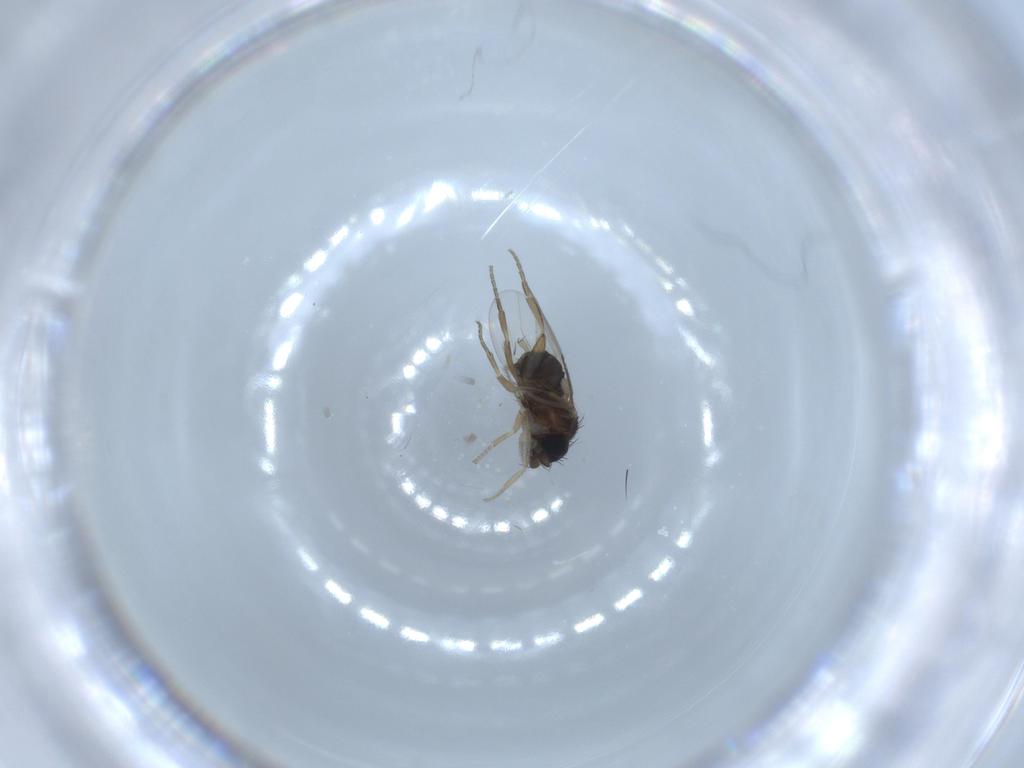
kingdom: Animalia
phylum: Arthropoda
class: Insecta
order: Diptera
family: Phoridae
